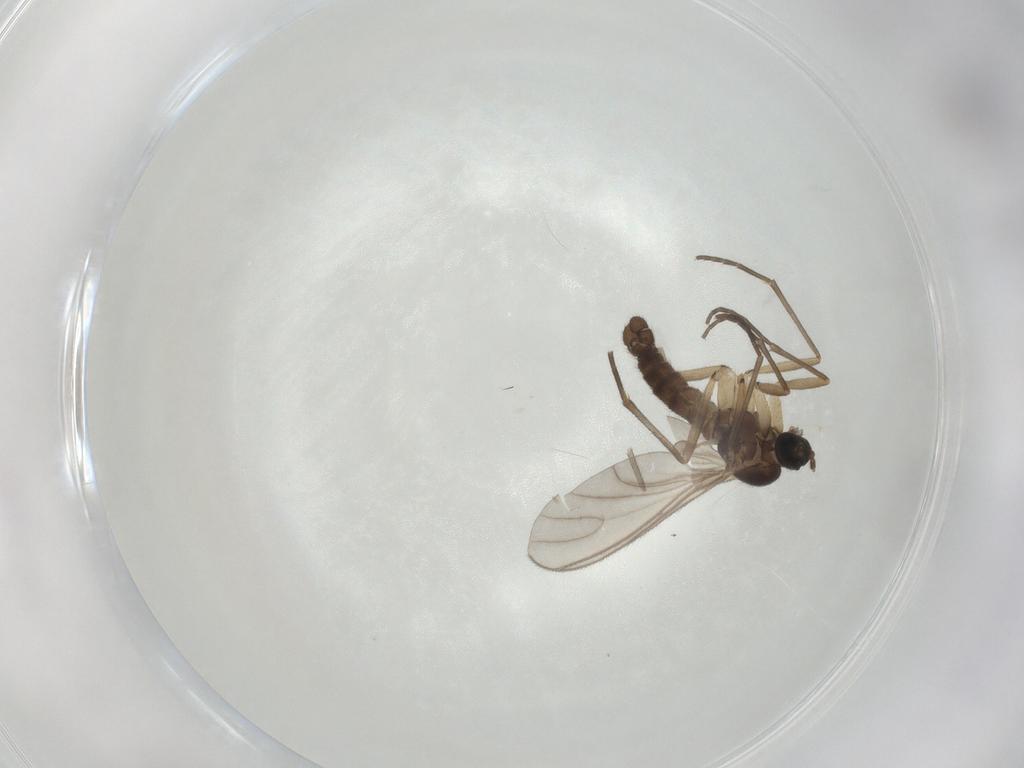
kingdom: Animalia
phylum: Arthropoda
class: Insecta
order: Diptera
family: Sciaridae
